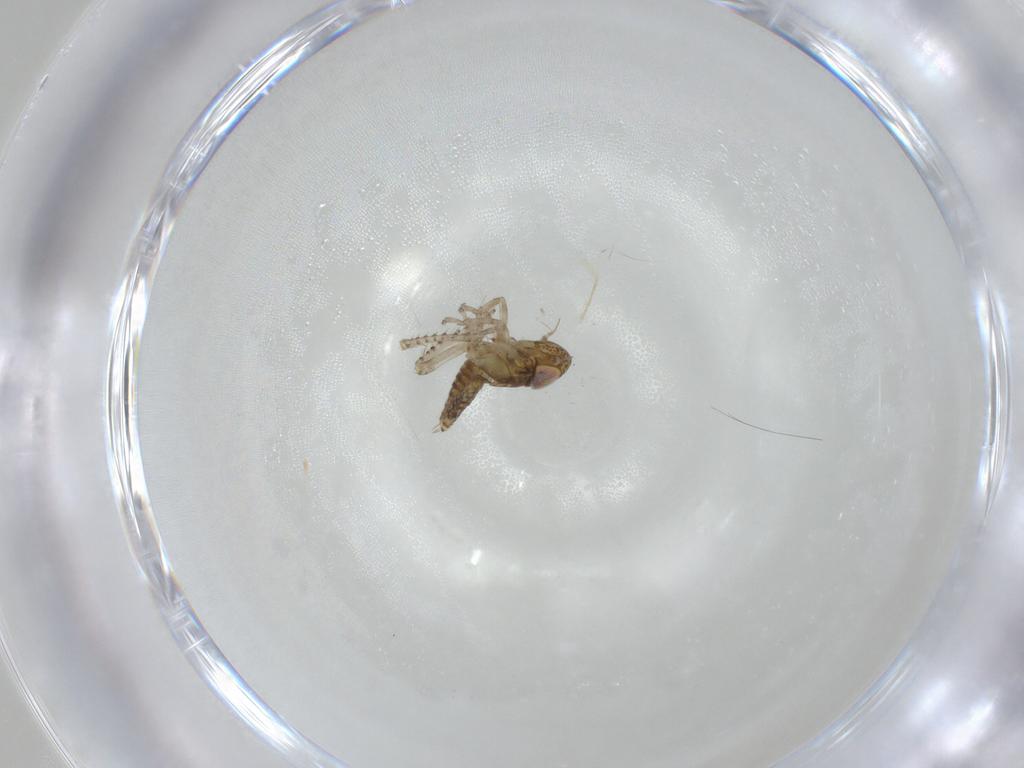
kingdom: Animalia
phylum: Arthropoda
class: Insecta
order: Hemiptera
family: Cicadellidae
